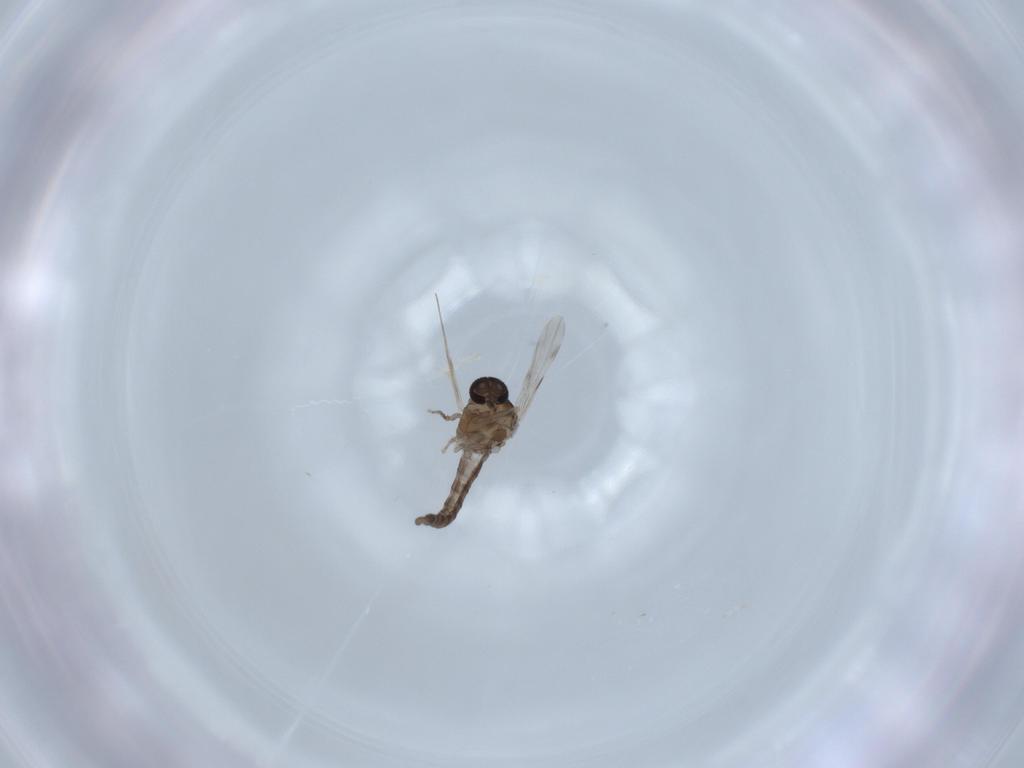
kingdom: Animalia
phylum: Arthropoda
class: Insecta
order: Diptera
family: Ceratopogonidae
